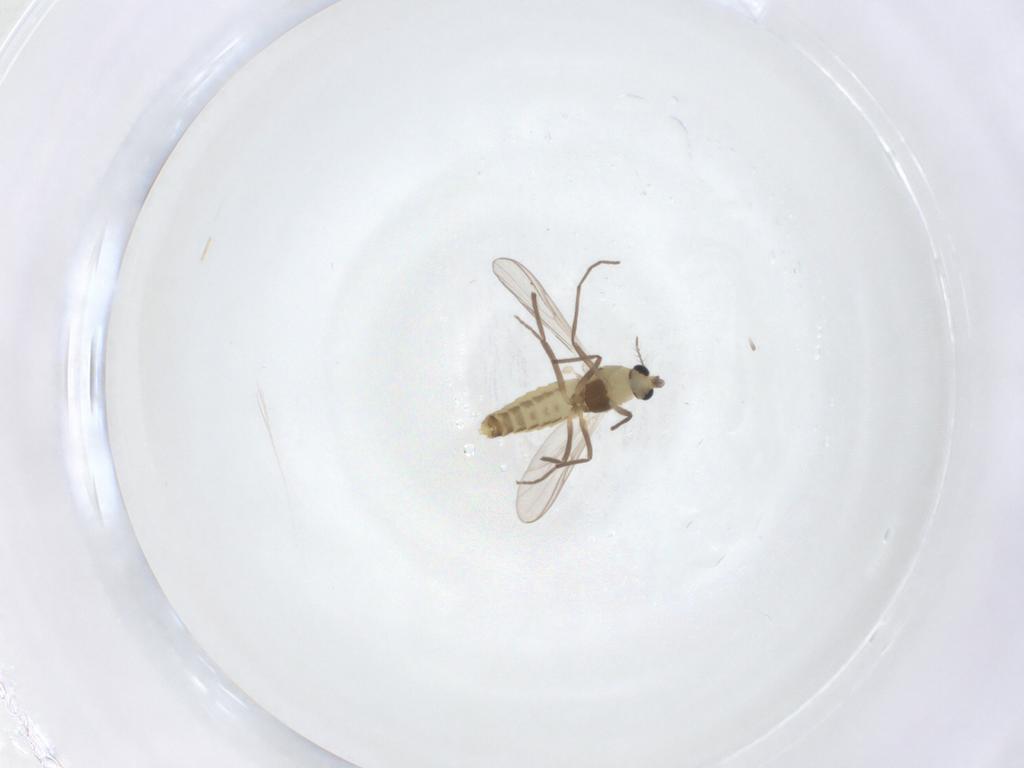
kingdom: Animalia
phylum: Arthropoda
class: Insecta
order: Diptera
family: Chironomidae
